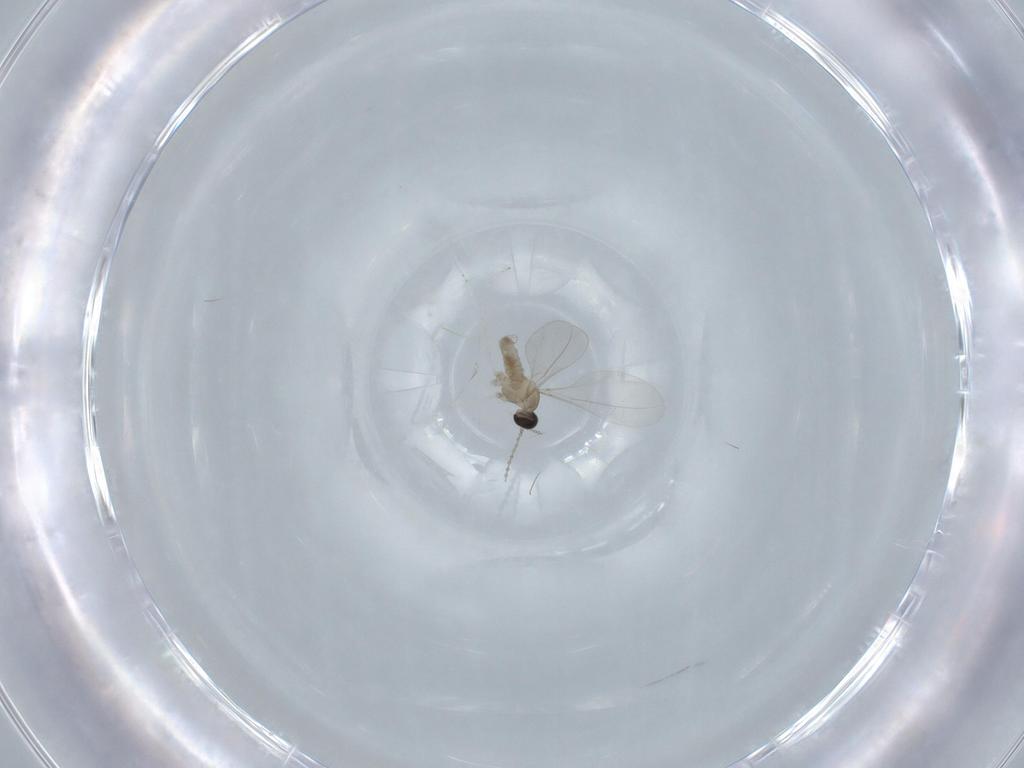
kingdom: Animalia
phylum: Arthropoda
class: Insecta
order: Diptera
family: Cecidomyiidae
